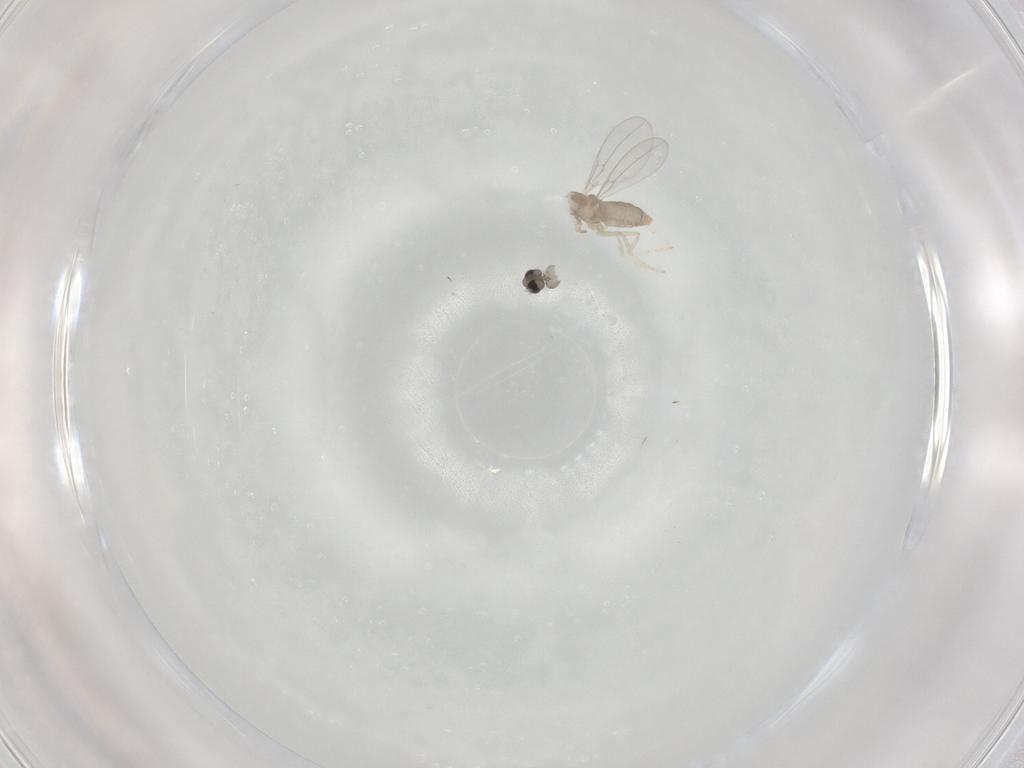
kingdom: Animalia
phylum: Arthropoda
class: Insecta
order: Diptera
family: Cecidomyiidae
